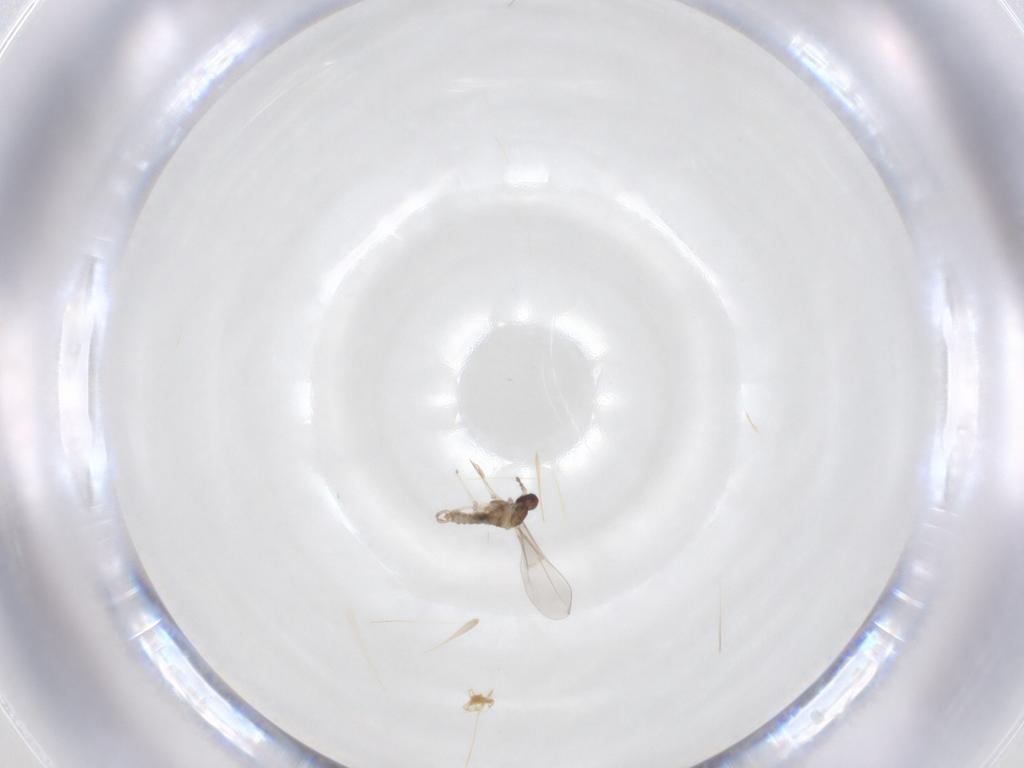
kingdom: Animalia
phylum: Arthropoda
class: Insecta
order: Diptera
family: Cecidomyiidae
